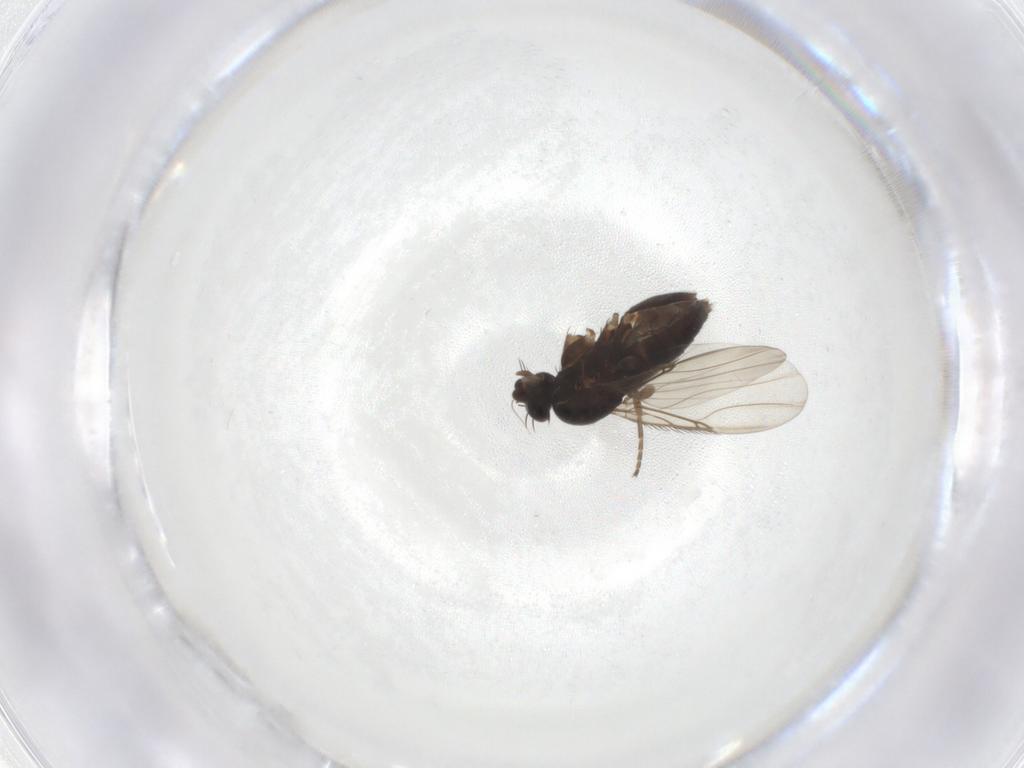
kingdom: Animalia
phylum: Arthropoda
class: Insecta
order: Diptera
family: Phoridae
